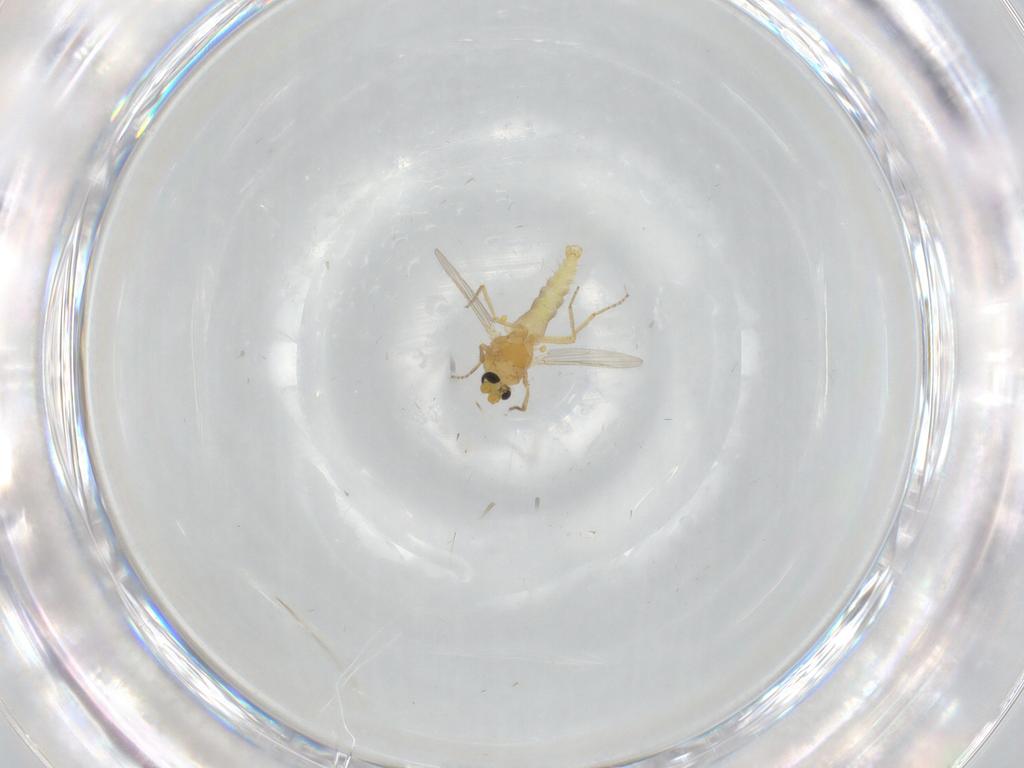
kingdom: Animalia
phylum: Arthropoda
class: Insecta
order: Diptera
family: Ceratopogonidae
